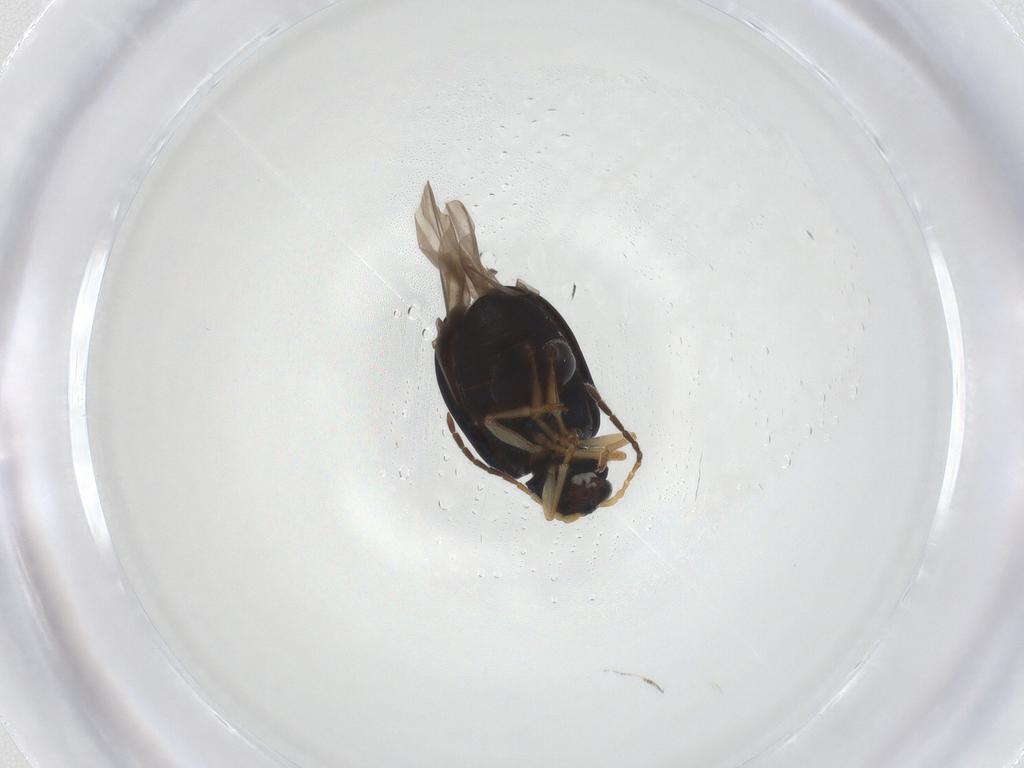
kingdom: Animalia
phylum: Arthropoda
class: Insecta
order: Coleoptera
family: Chrysomelidae
